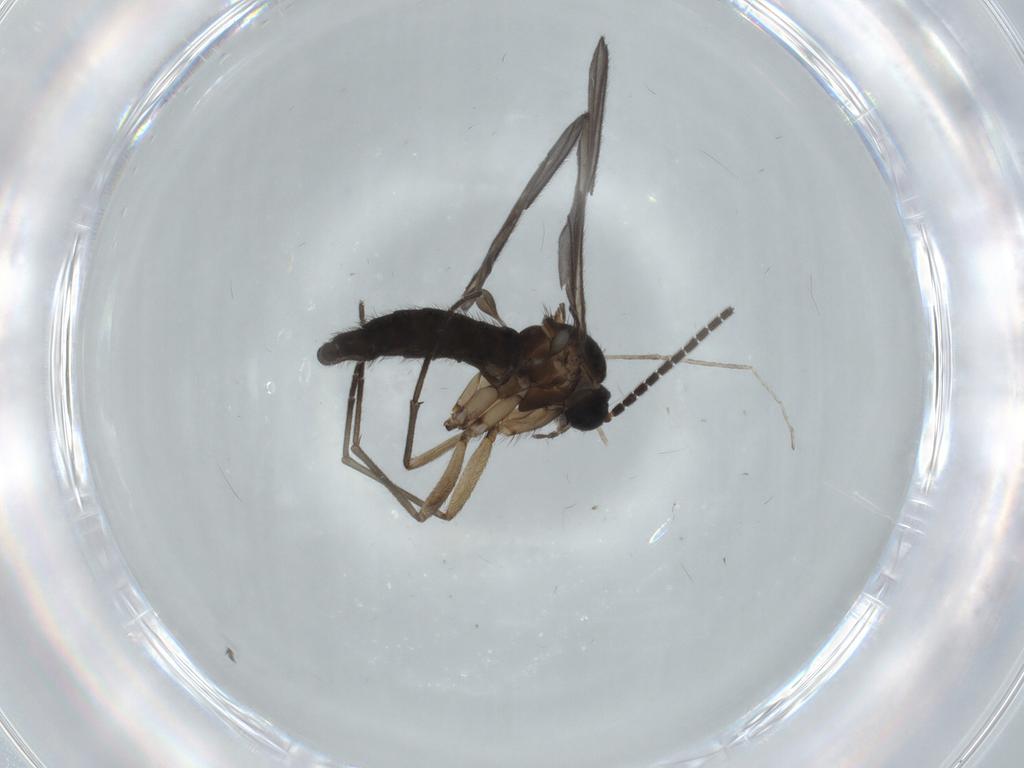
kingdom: Animalia
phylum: Arthropoda
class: Insecta
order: Diptera
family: Sciaridae
